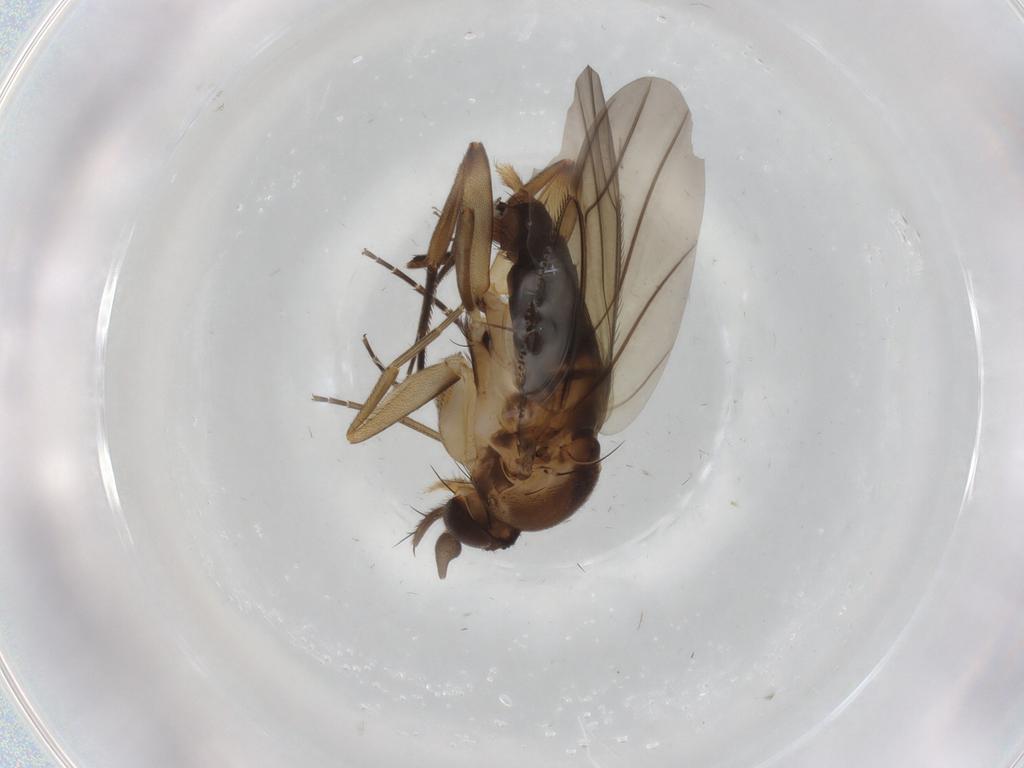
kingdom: Animalia
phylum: Arthropoda
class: Insecta
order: Diptera
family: Phoridae
